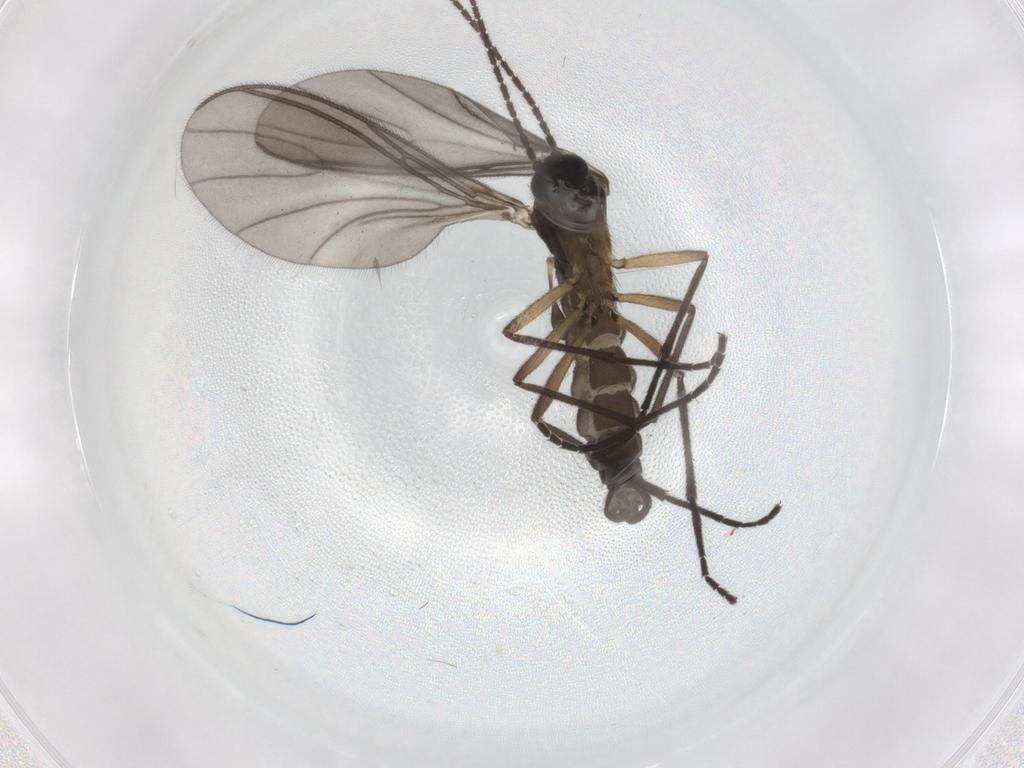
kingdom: Animalia
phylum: Arthropoda
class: Insecta
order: Diptera
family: Sciaridae
